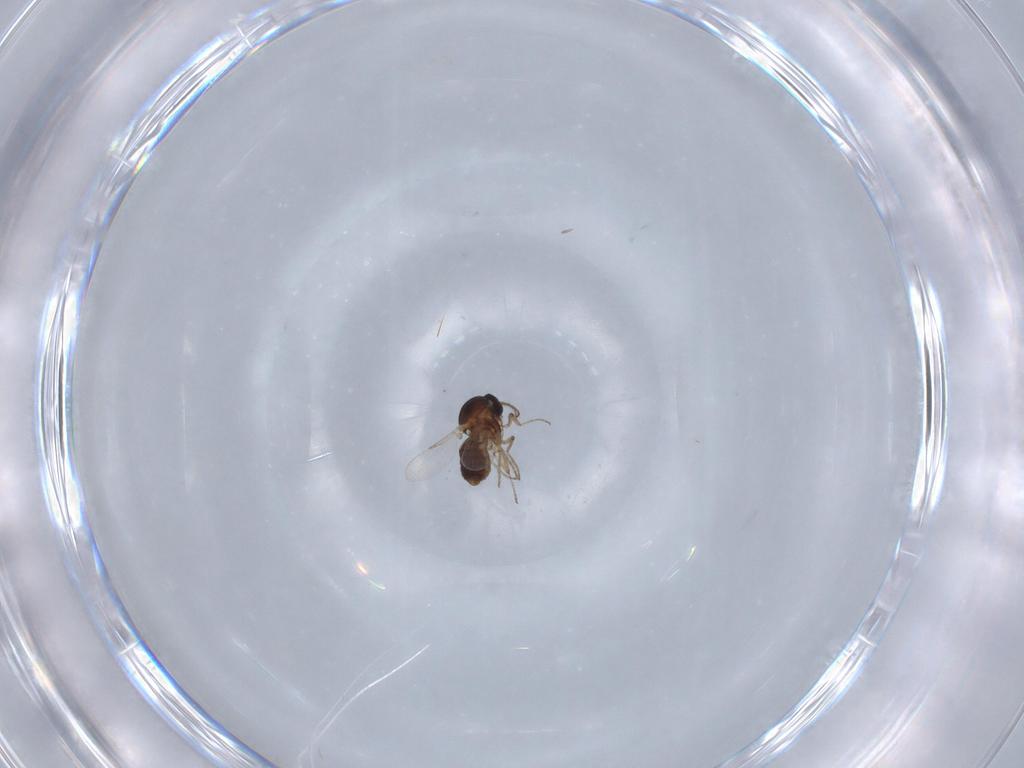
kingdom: Animalia
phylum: Arthropoda
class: Insecta
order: Diptera
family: Ceratopogonidae
